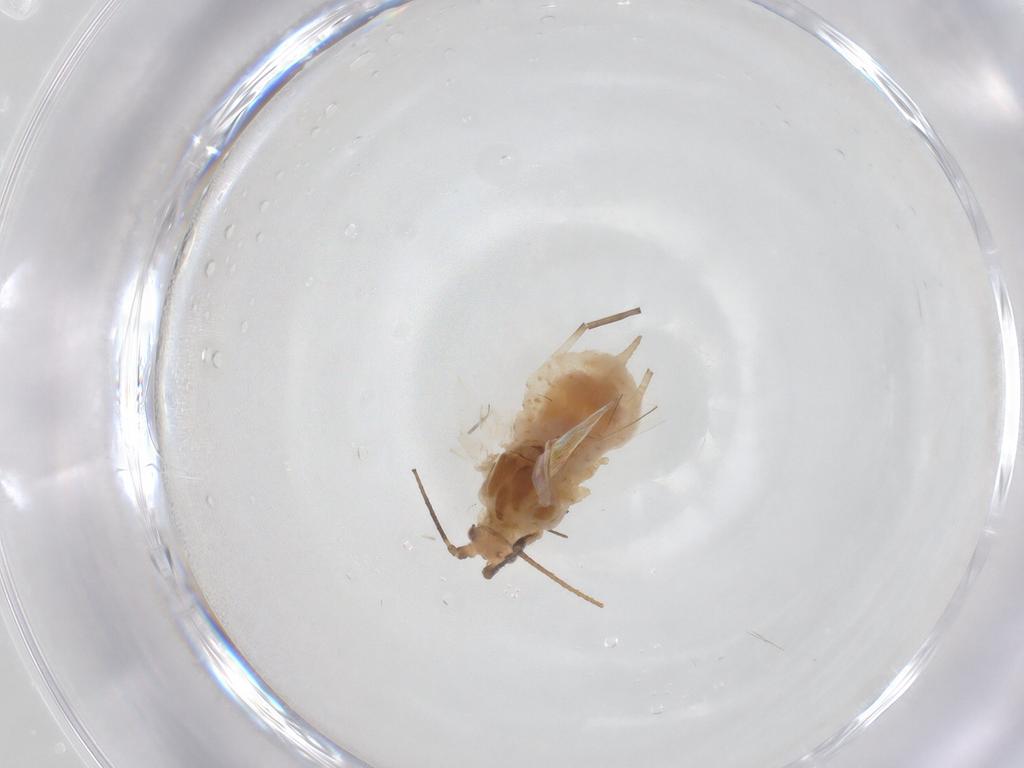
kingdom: Animalia
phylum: Arthropoda
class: Insecta
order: Hemiptera
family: Aphididae
